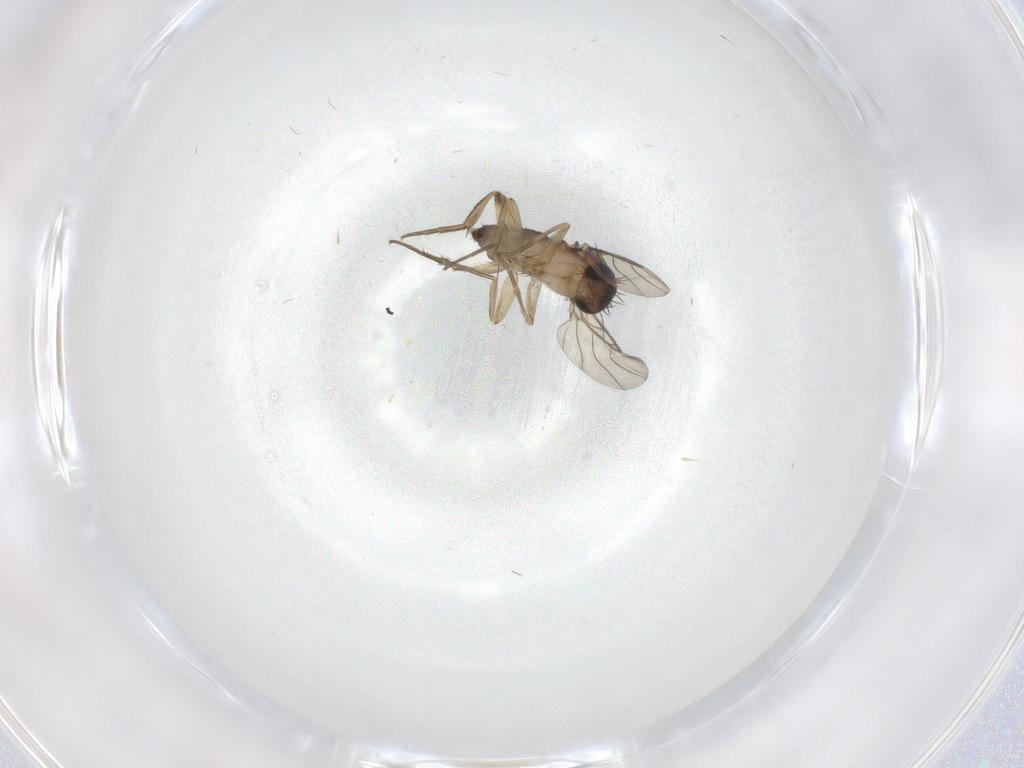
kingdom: Animalia
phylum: Arthropoda
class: Insecta
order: Diptera
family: Phoridae
